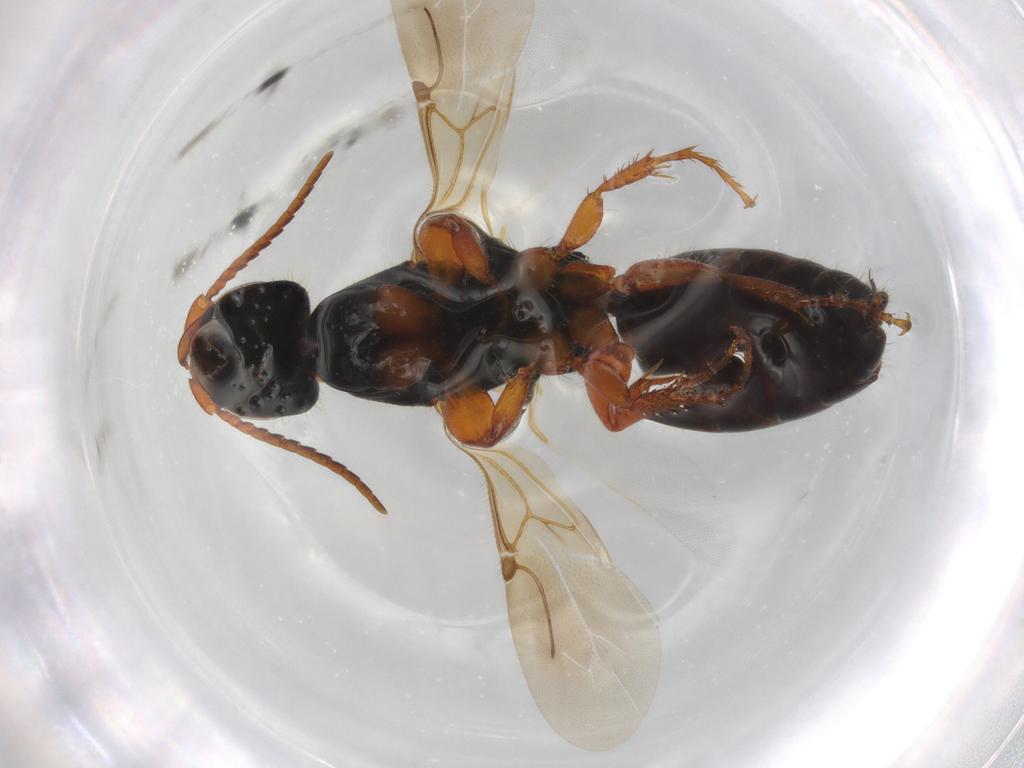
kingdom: Animalia
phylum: Arthropoda
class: Insecta
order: Hymenoptera
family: Bethylidae
